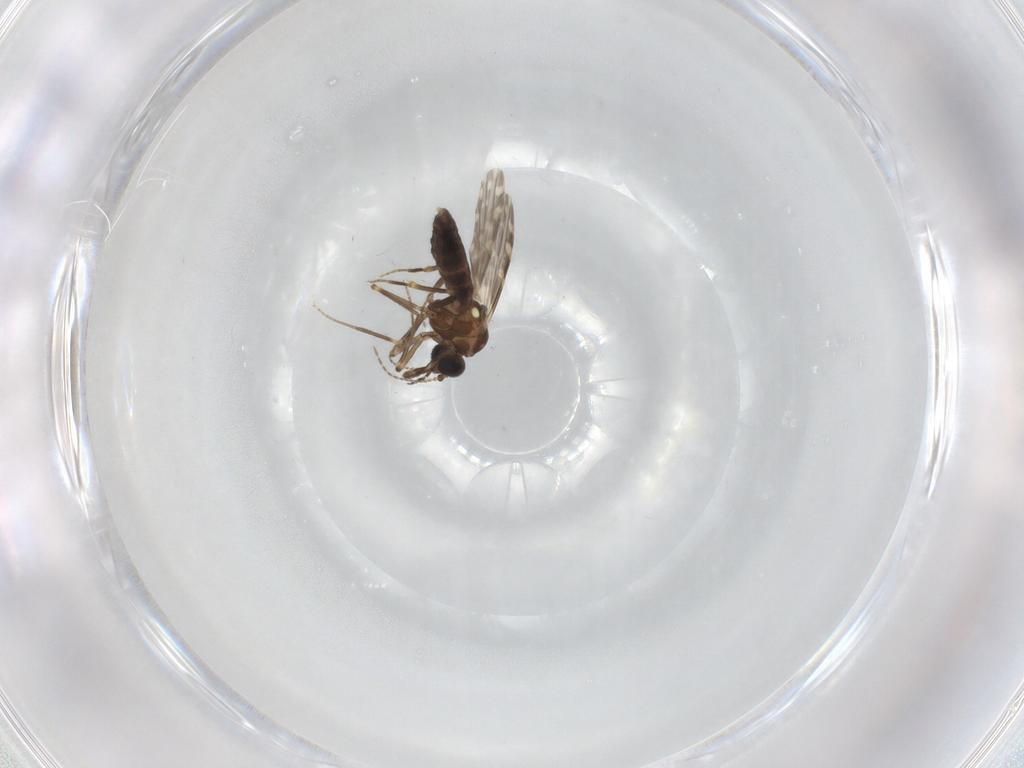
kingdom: Animalia
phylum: Arthropoda
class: Insecta
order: Diptera
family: Ceratopogonidae
